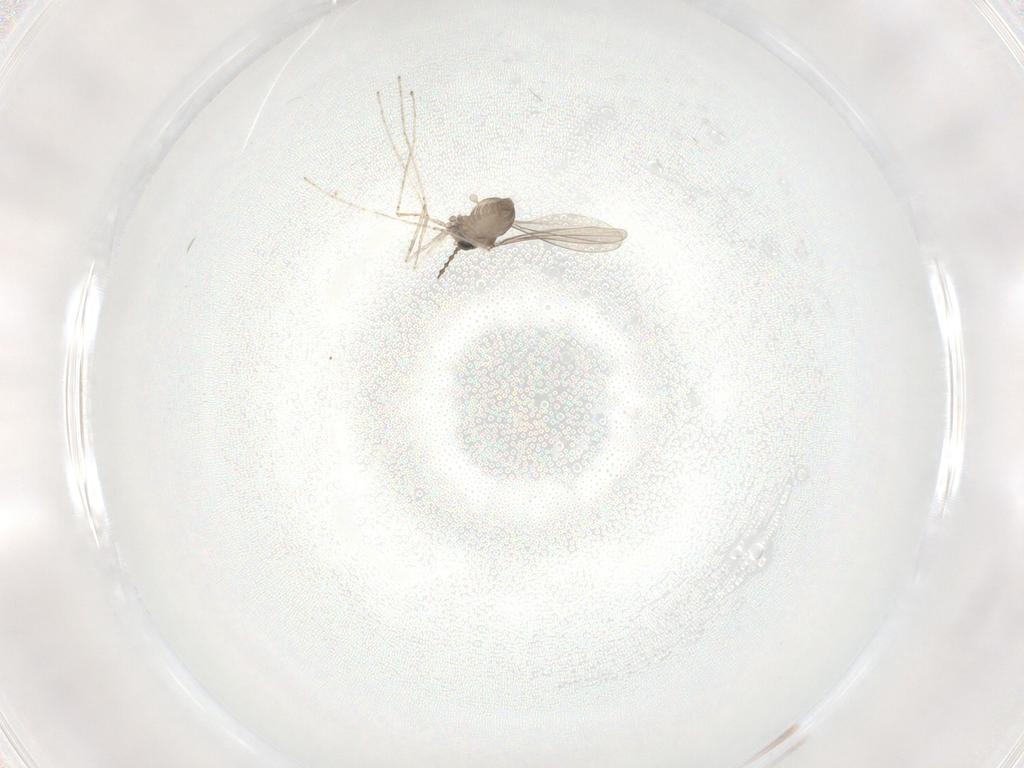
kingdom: Animalia
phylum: Arthropoda
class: Insecta
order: Diptera
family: Cecidomyiidae
